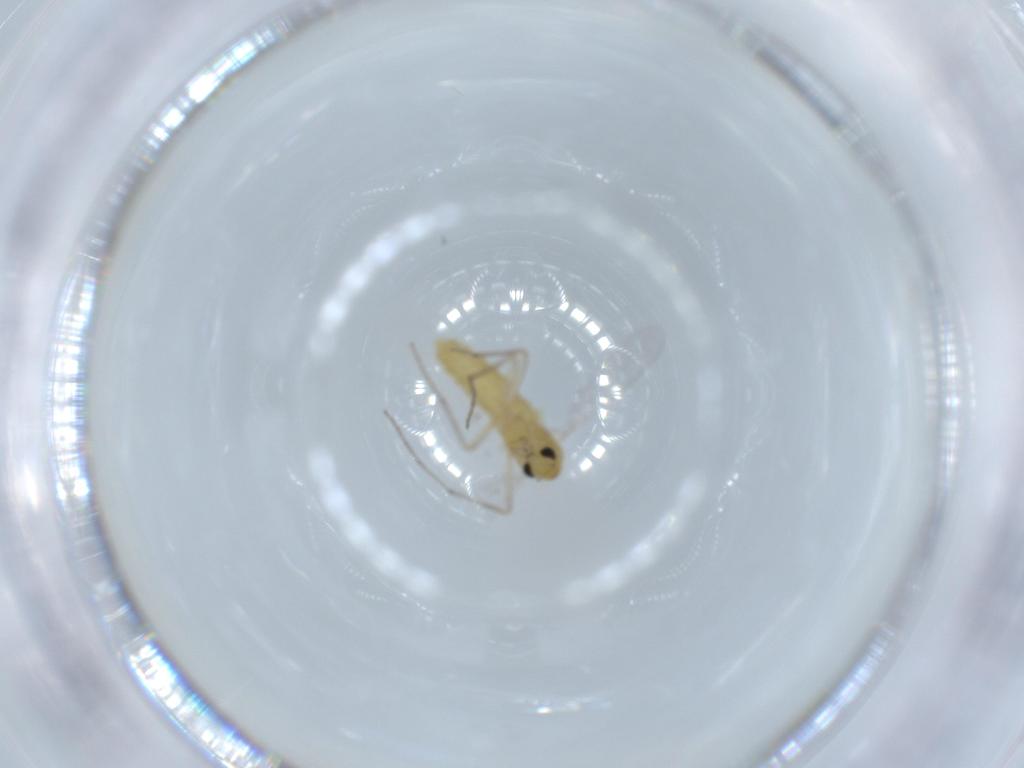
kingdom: Animalia
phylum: Arthropoda
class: Insecta
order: Diptera
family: Chironomidae
